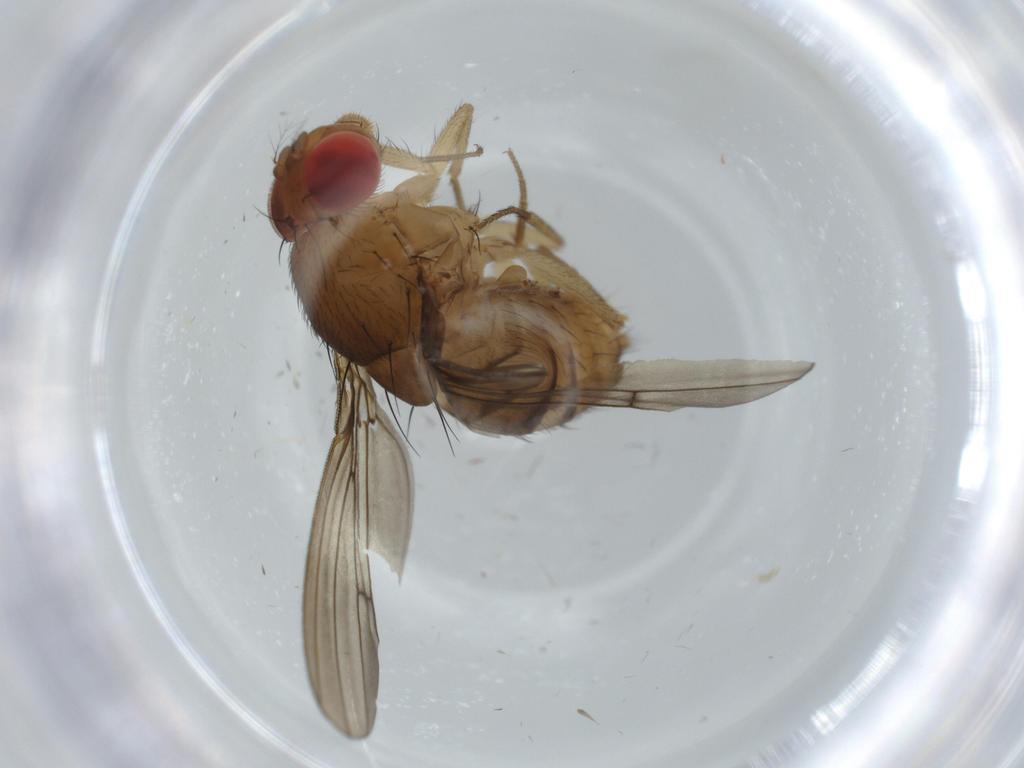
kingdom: Animalia
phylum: Arthropoda
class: Insecta
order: Diptera
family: Drosophilidae
